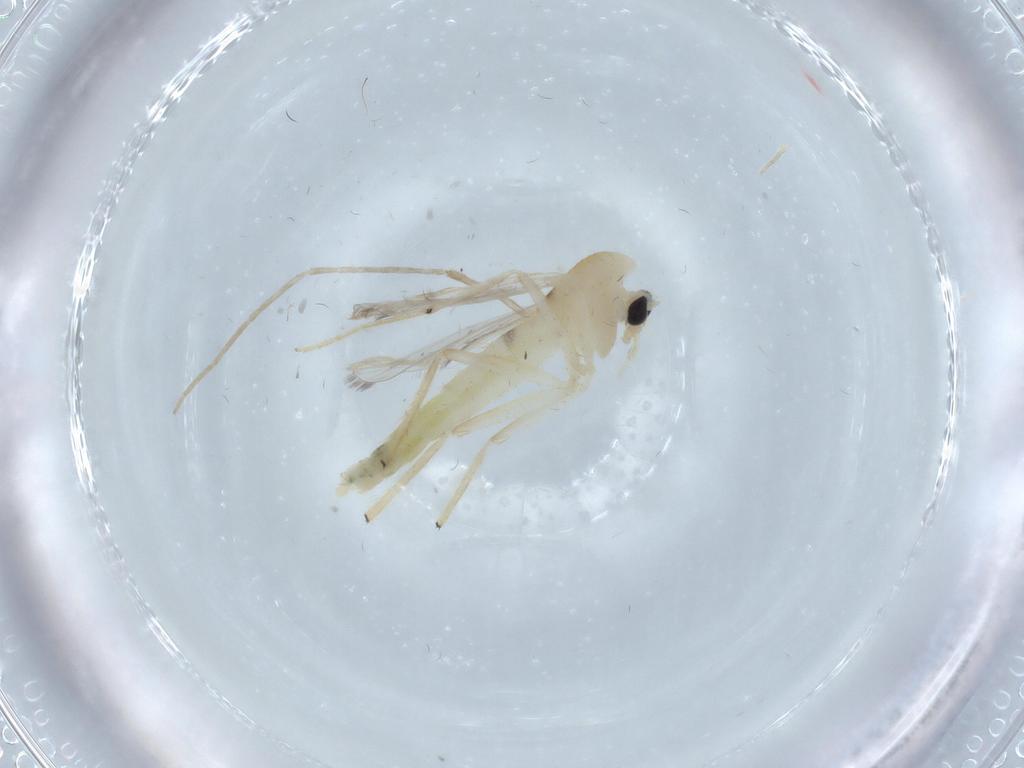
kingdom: Animalia
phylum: Arthropoda
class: Insecta
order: Diptera
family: Chironomidae
